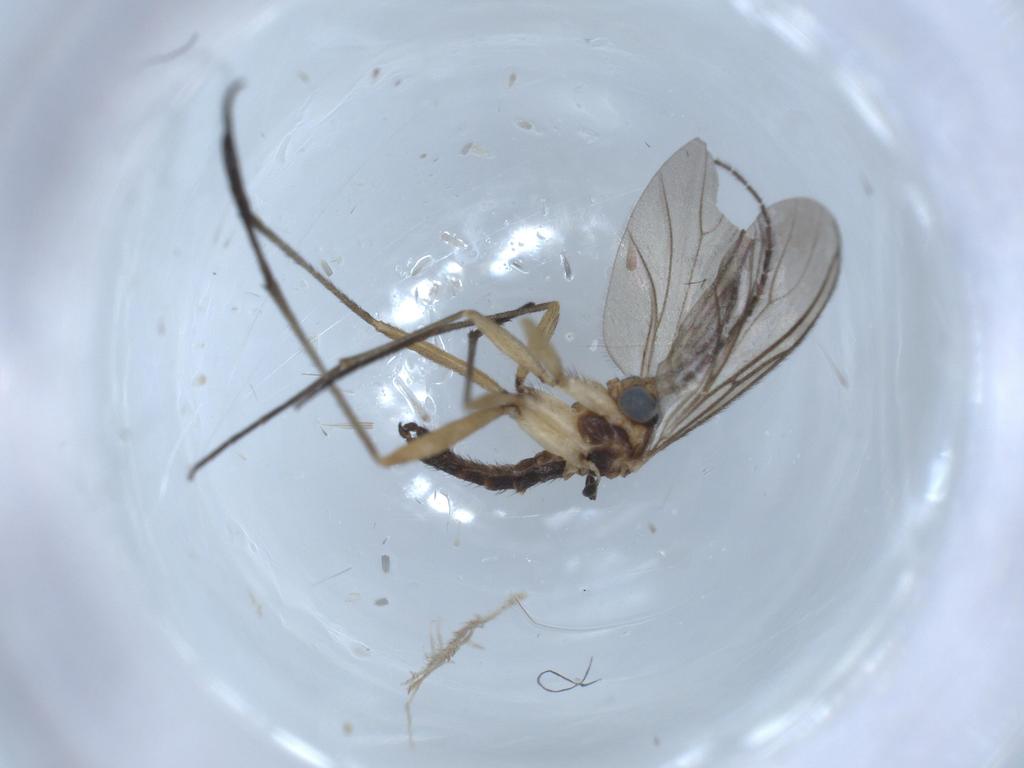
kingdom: Animalia
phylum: Arthropoda
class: Insecta
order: Diptera
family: Sciaridae
